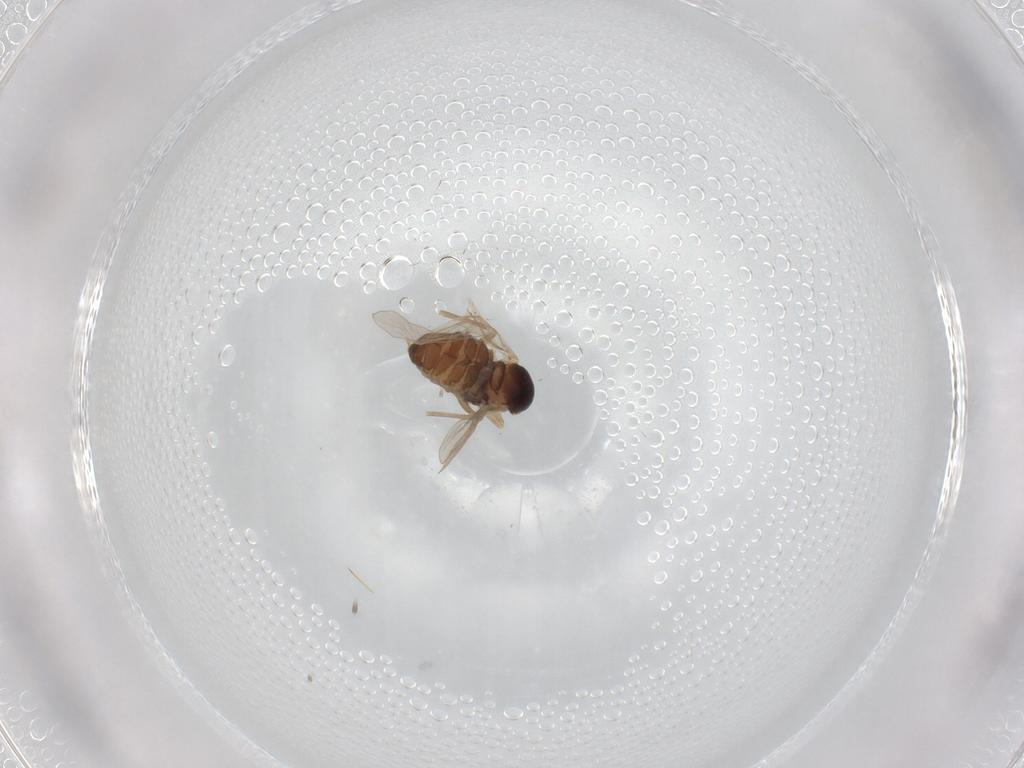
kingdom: Animalia
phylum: Arthropoda
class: Insecta
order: Diptera
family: Cecidomyiidae
